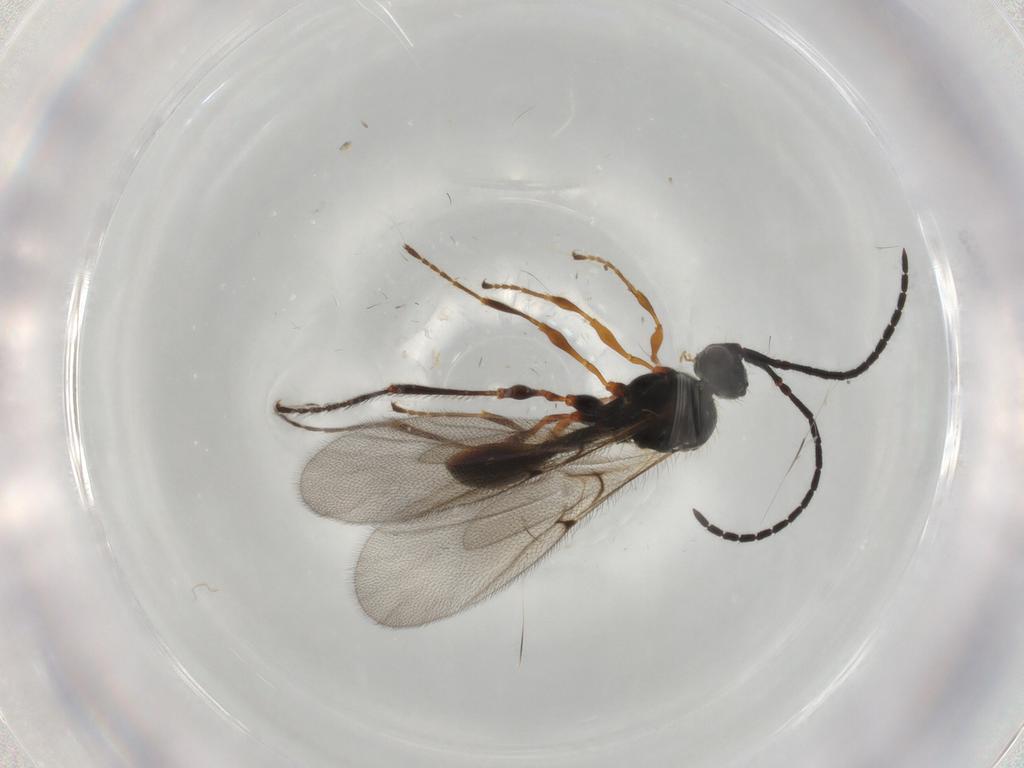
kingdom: Animalia
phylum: Arthropoda
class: Insecta
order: Hymenoptera
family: Diapriidae
